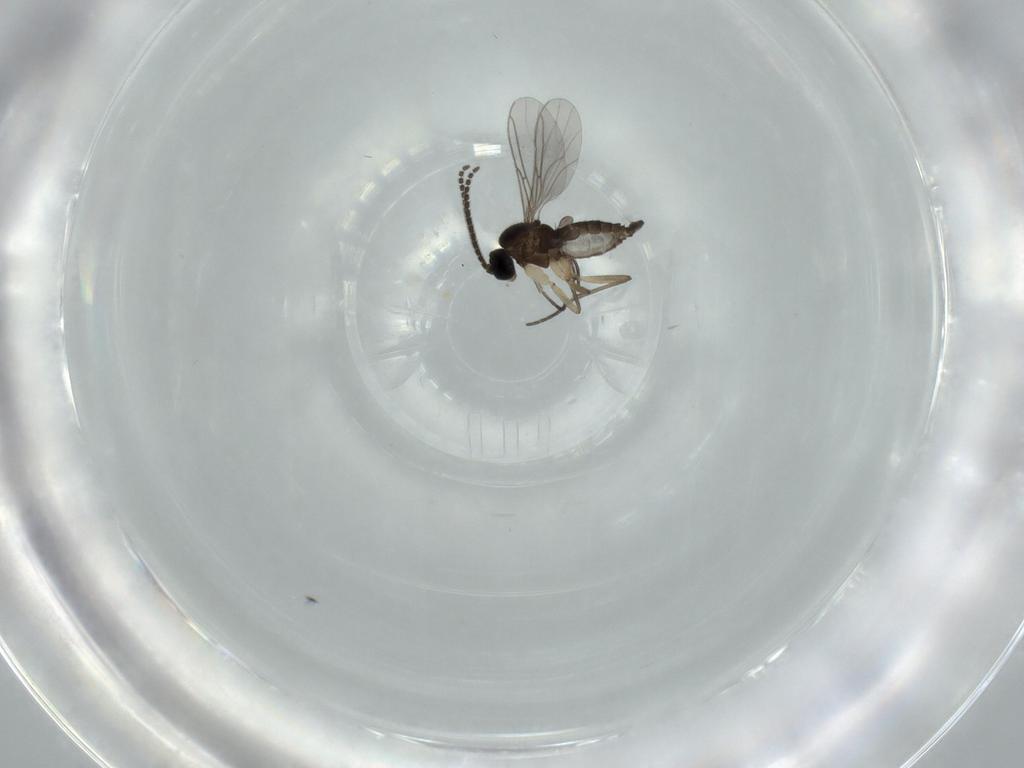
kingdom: Animalia
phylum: Arthropoda
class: Insecta
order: Diptera
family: Sciaridae
